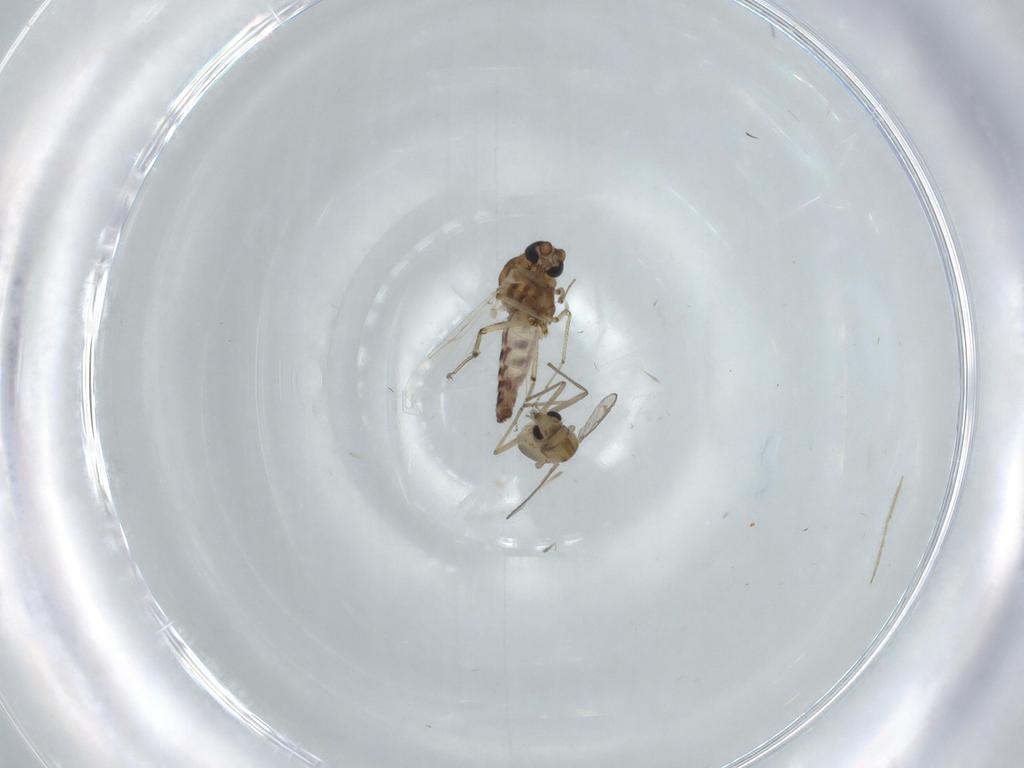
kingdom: Animalia
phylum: Arthropoda
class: Insecta
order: Diptera
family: Chironomidae
